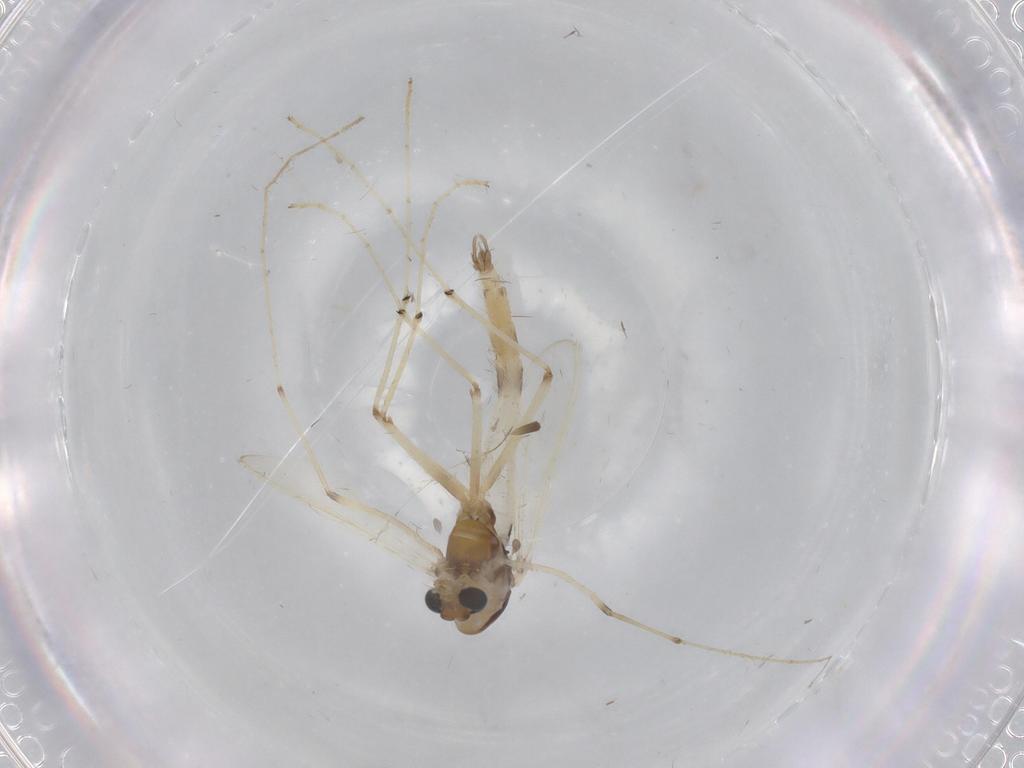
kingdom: Animalia
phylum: Arthropoda
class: Insecta
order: Diptera
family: Chironomidae
